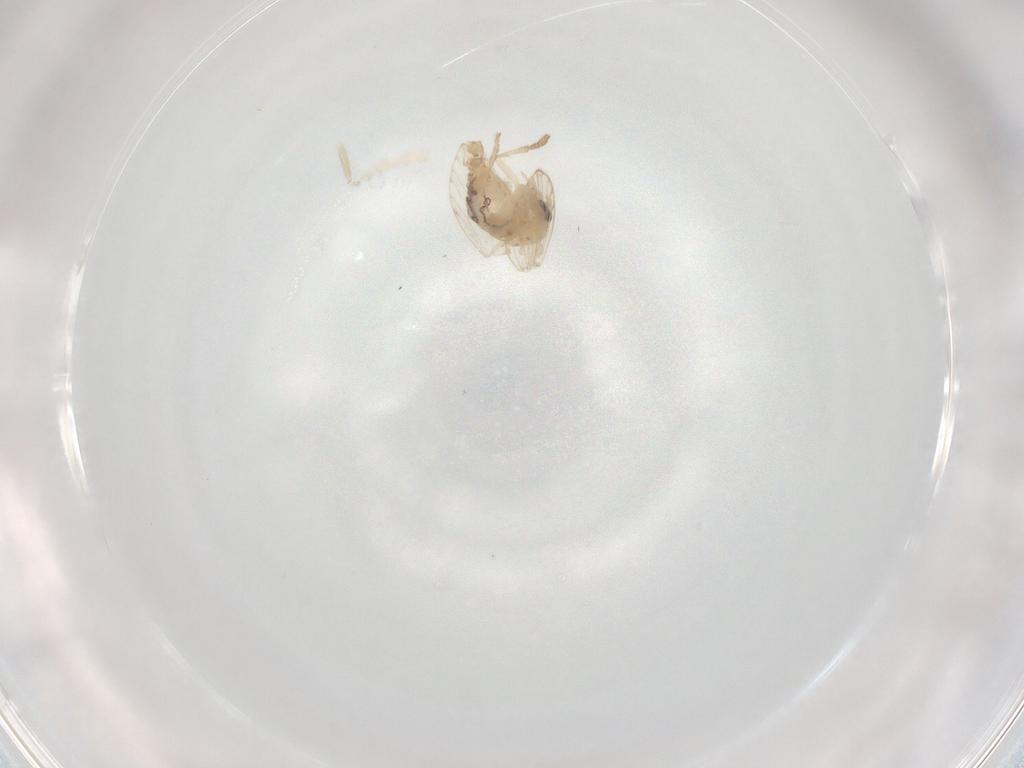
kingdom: Animalia
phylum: Arthropoda
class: Insecta
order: Diptera
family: Psychodidae
